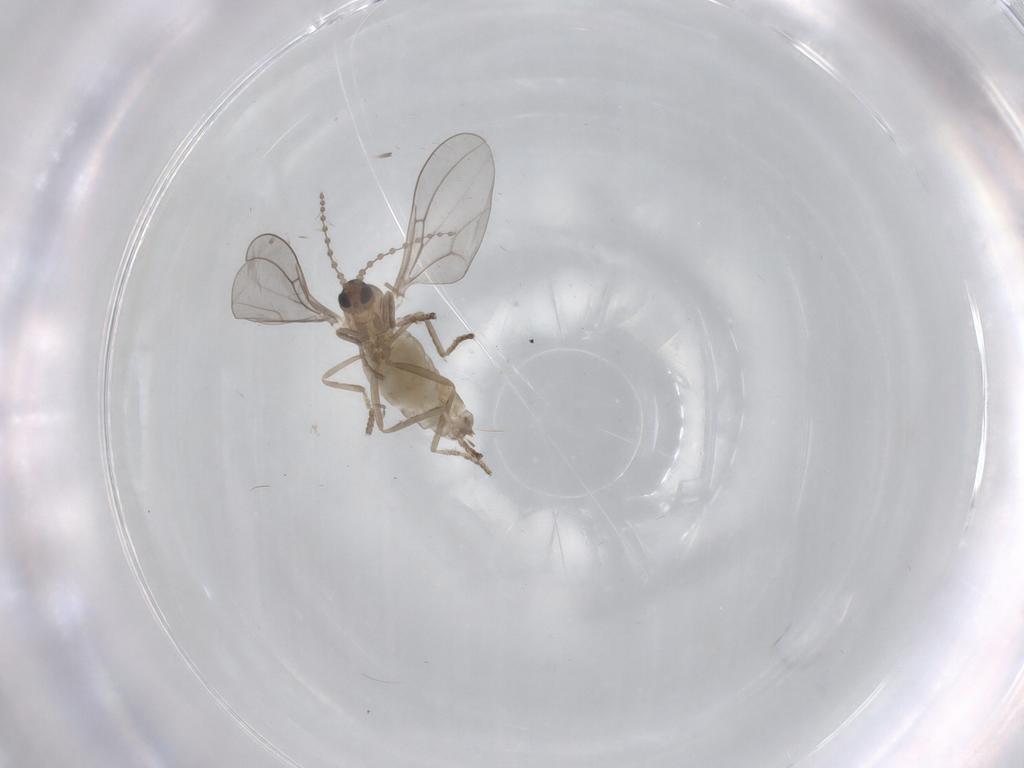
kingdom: Animalia
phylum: Arthropoda
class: Insecta
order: Diptera
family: Cecidomyiidae
